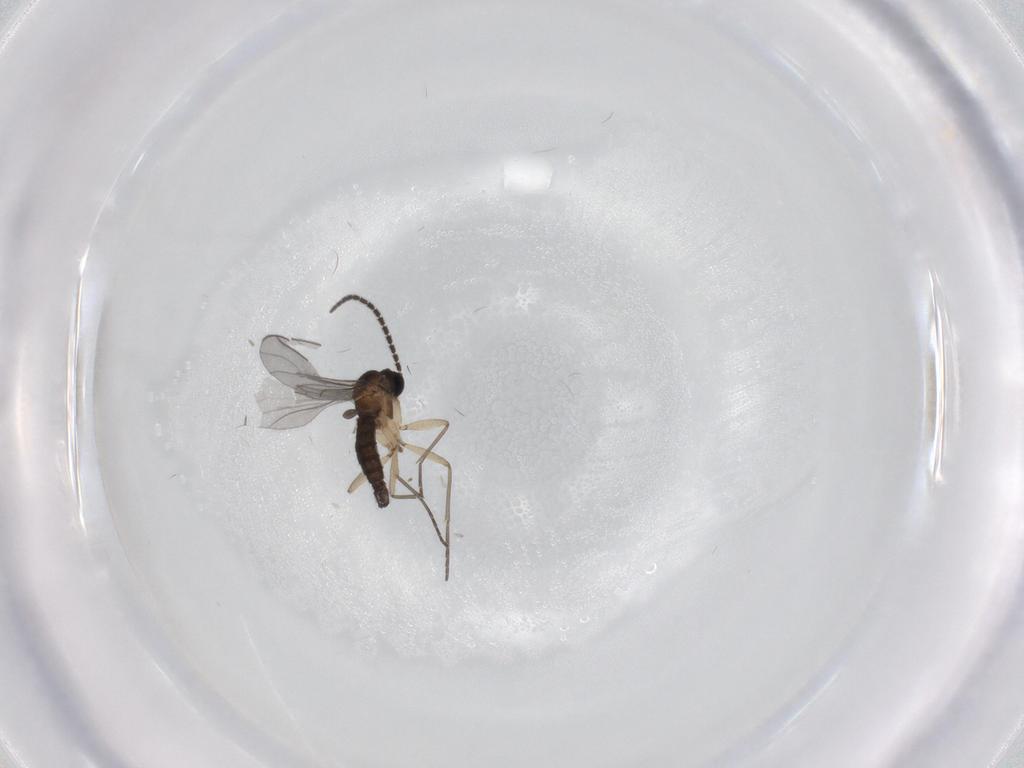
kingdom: Animalia
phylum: Arthropoda
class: Insecta
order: Diptera
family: Sciaridae
